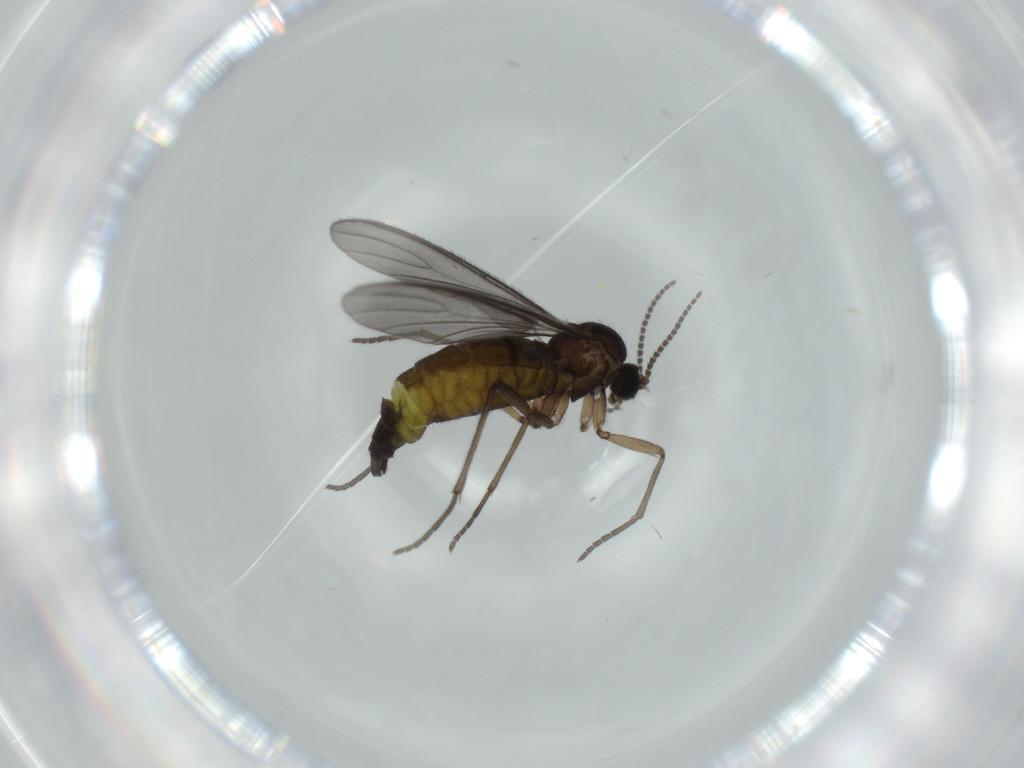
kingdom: Animalia
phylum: Arthropoda
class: Insecta
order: Diptera
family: Sciaridae
